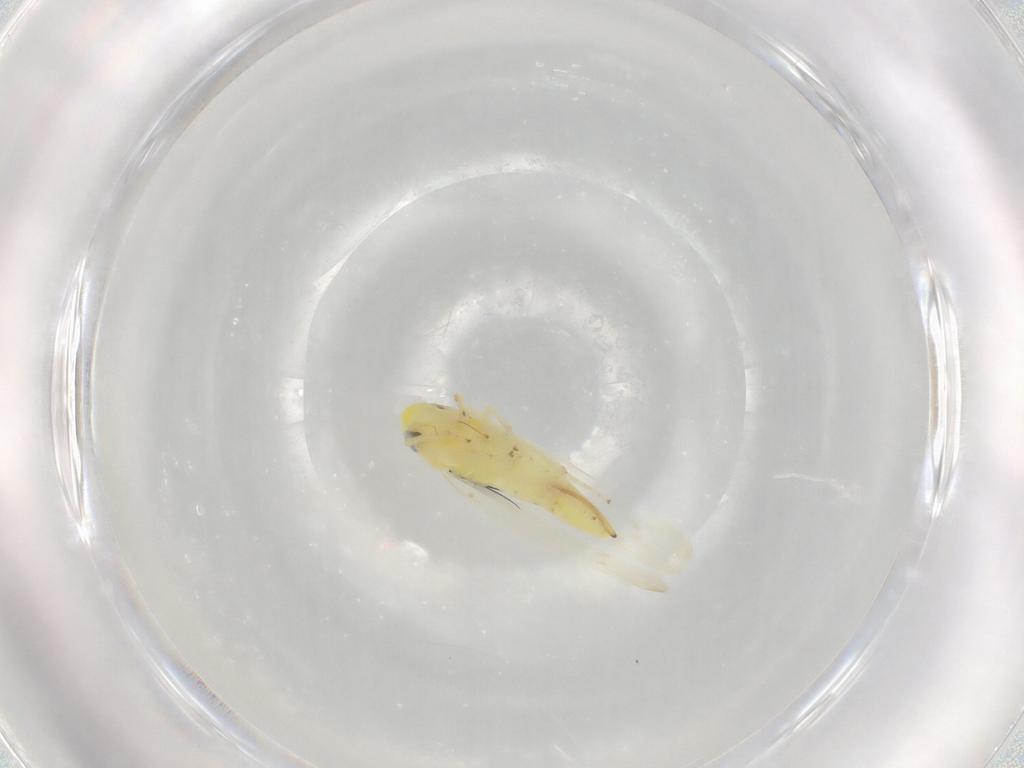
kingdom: Animalia
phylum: Arthropoda
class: Insecta
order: Hemiptera
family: Cicadellidae
